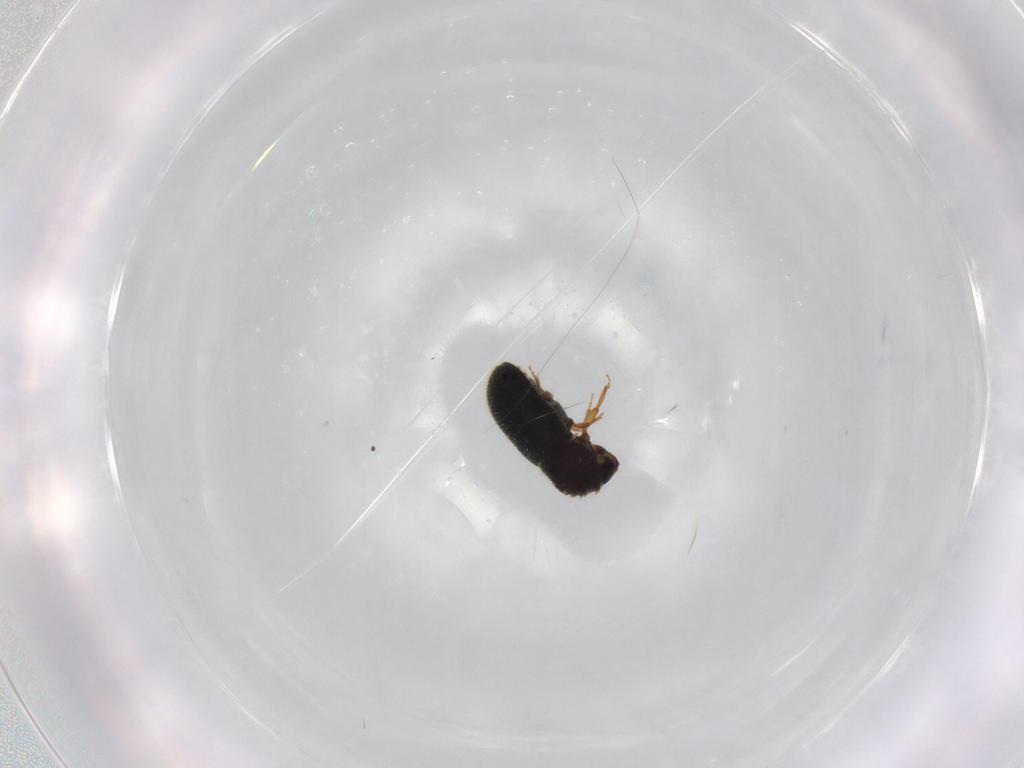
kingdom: Animalia
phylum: Arthropoda
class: Insecta
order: Coleoptera
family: Curculionidae
